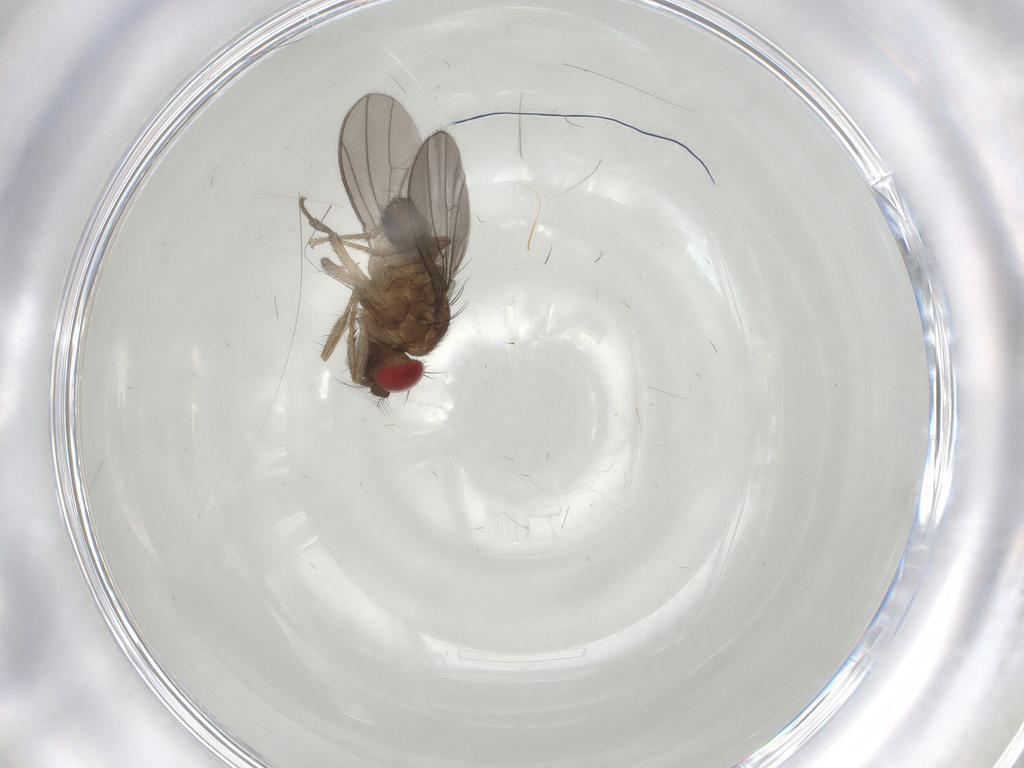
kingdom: Animalia
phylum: Arthropoda
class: Insecta
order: Diptera
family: Drosophilidae
